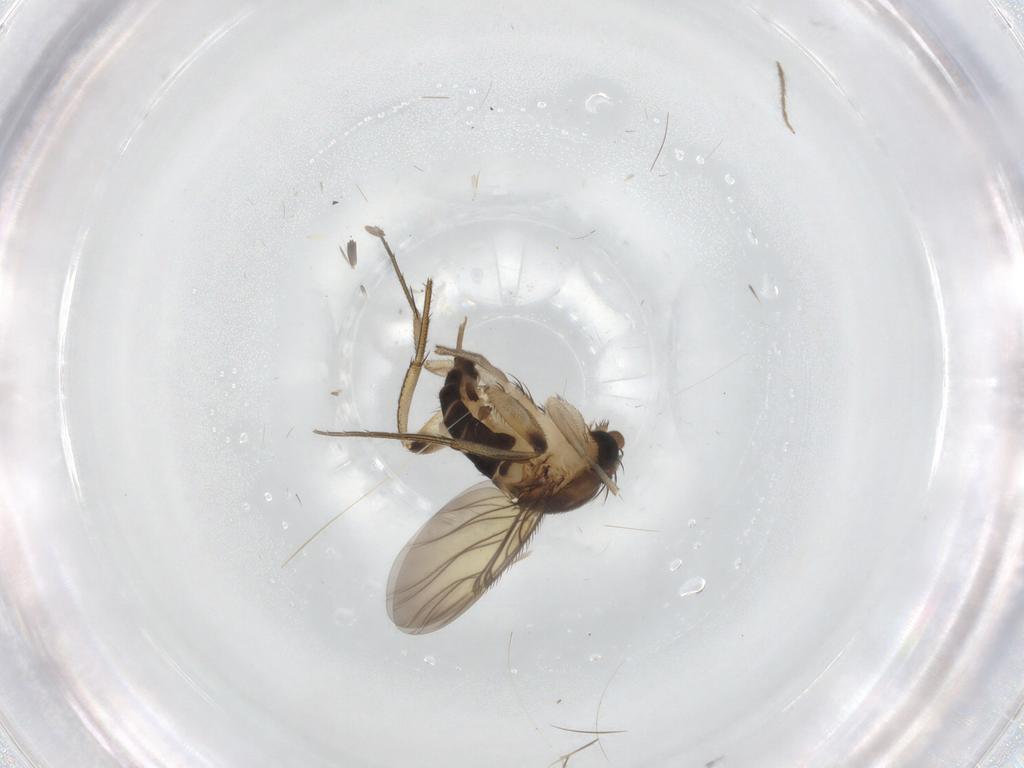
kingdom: Animalia
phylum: Arthropoda
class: Insecta
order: Diptera
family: Phoridae
